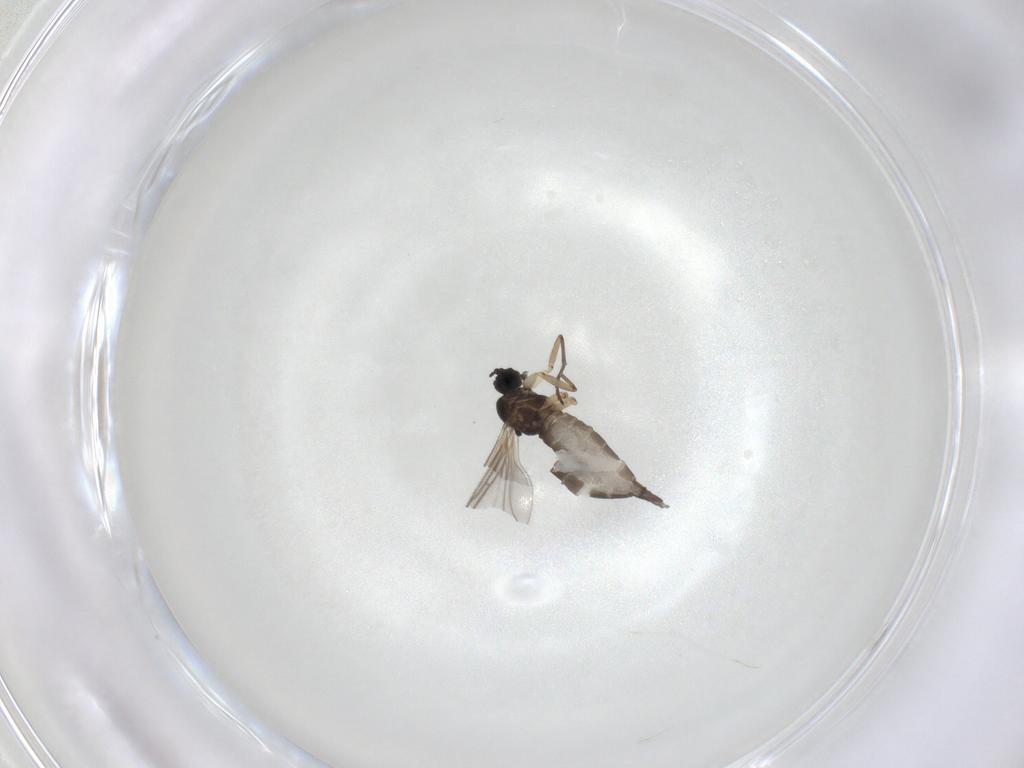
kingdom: Animalia
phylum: Arthropoda
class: Insecta
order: Diptera
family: Sciaridae
